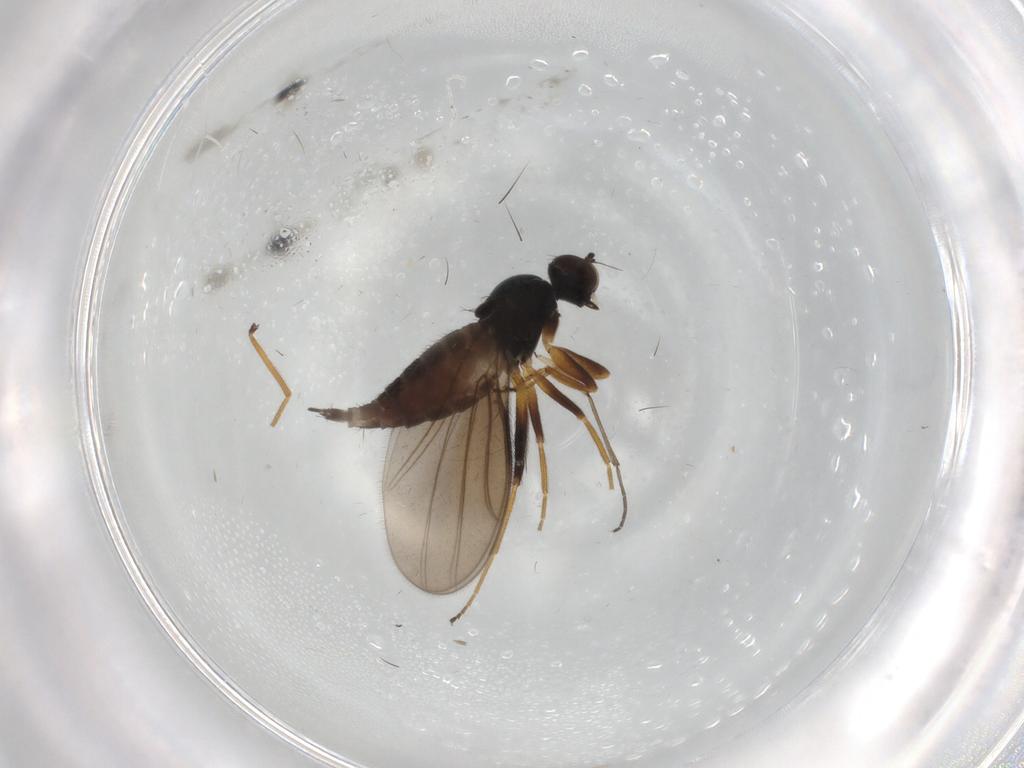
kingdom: Animalia
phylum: Arthropoda
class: Insecta
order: Diptera
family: Hybotidae
